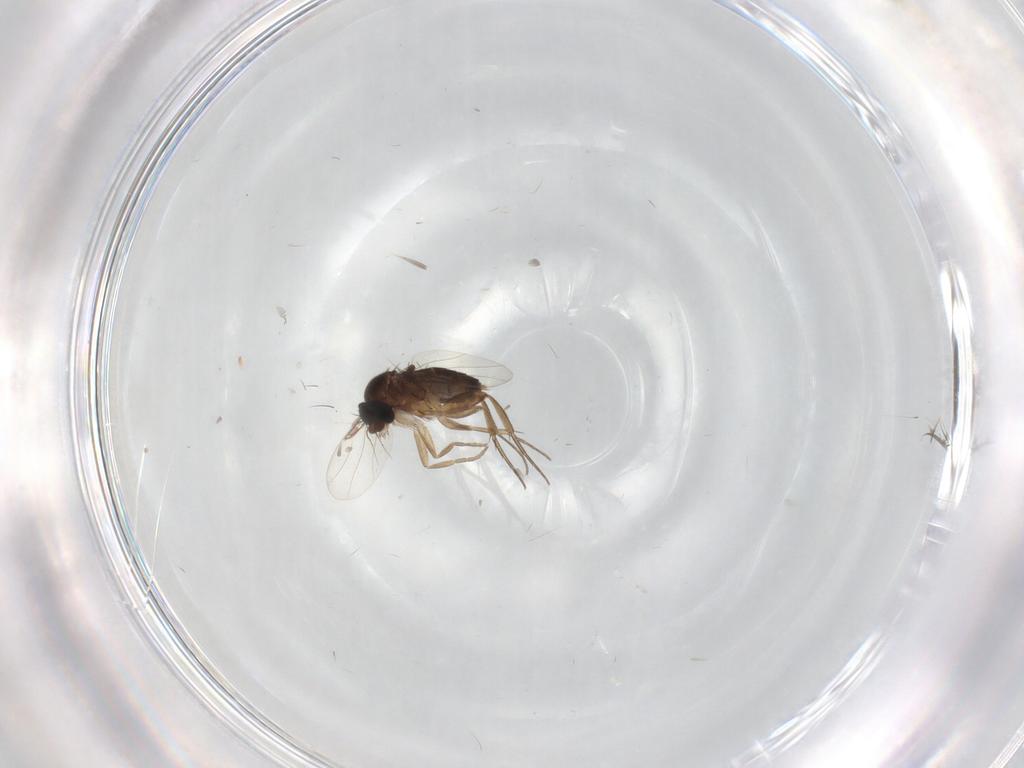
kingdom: Animalia
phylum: Arthropoda
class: Insecta
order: Diptera
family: Phoridae
